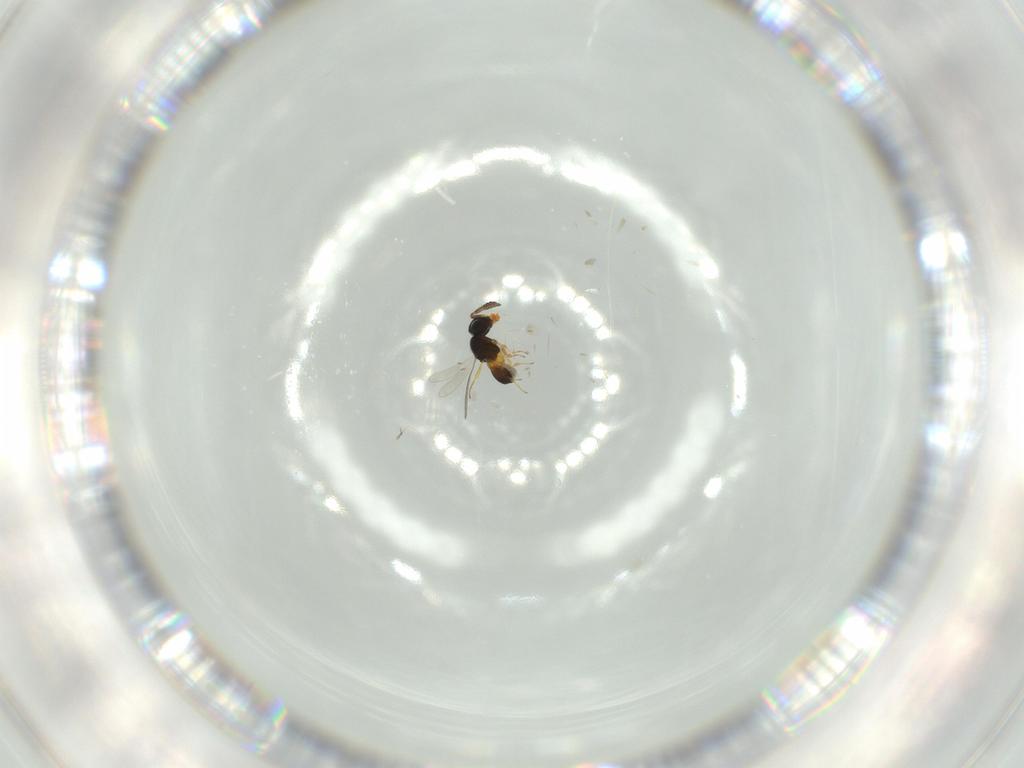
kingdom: Animalia
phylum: Arthropoda
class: Insecta
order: Hymenoptera
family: Scelionidae
